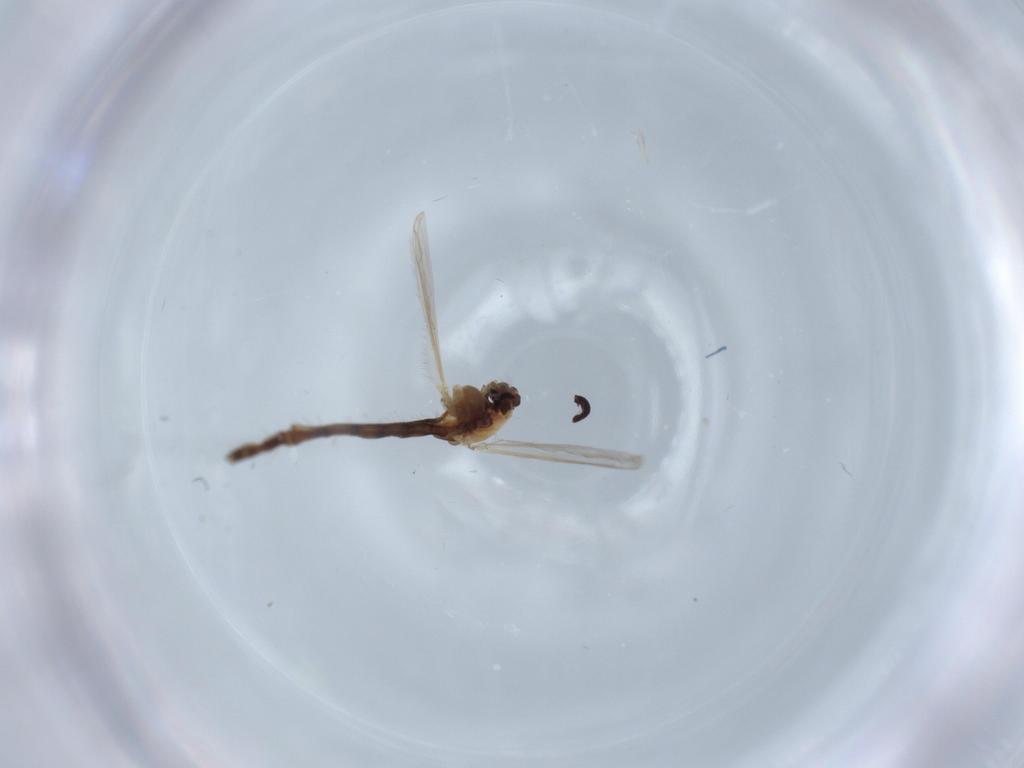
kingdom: Animalia
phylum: Arthropoda
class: Insecta
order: Diptera
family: Chironomidae
